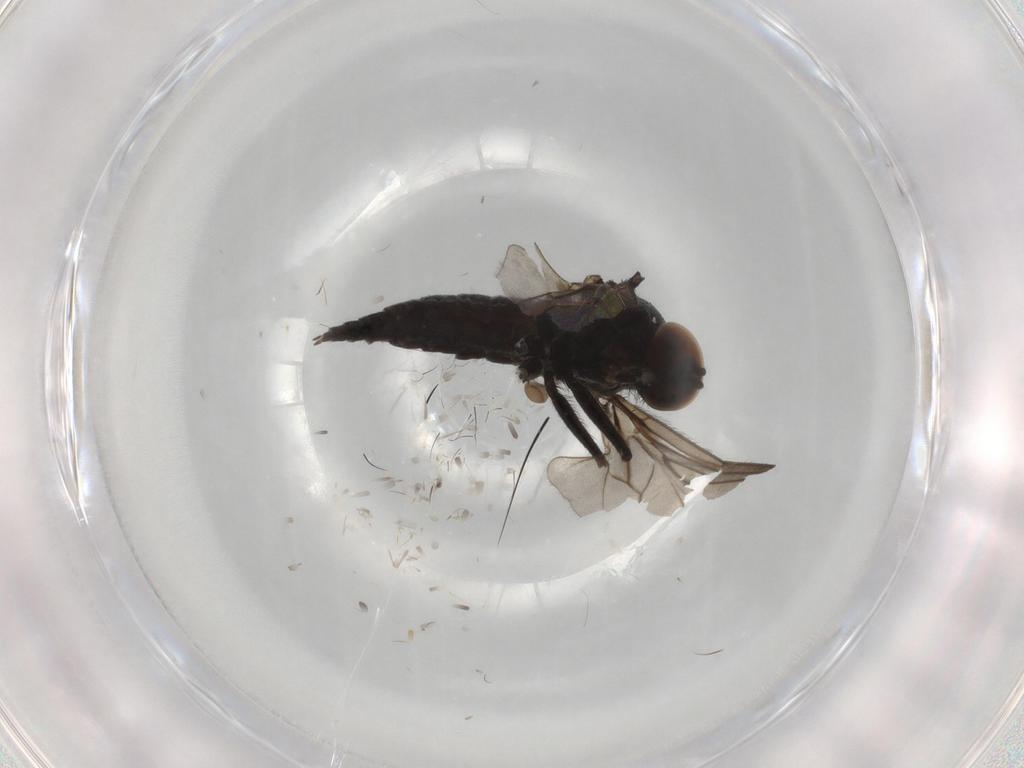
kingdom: Animalia
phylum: Arthropoda
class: Insecta
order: Diptera
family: Hybotidae
